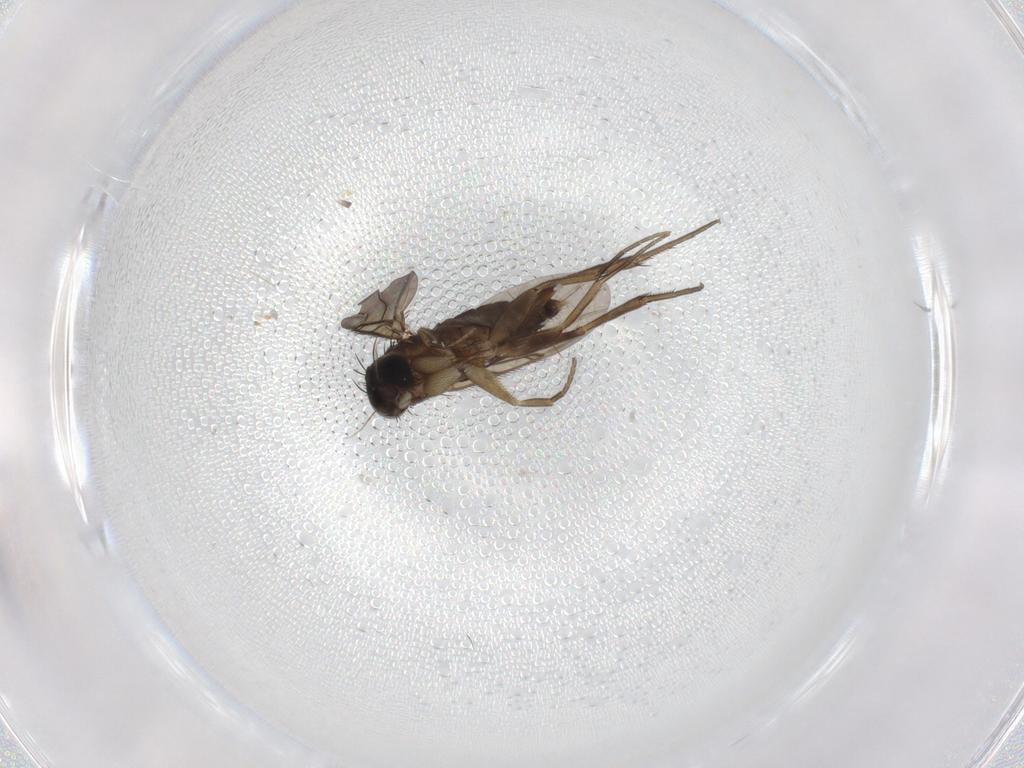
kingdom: Animalia
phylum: Arthropoda
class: Insecta
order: Diptera
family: Phoridae
